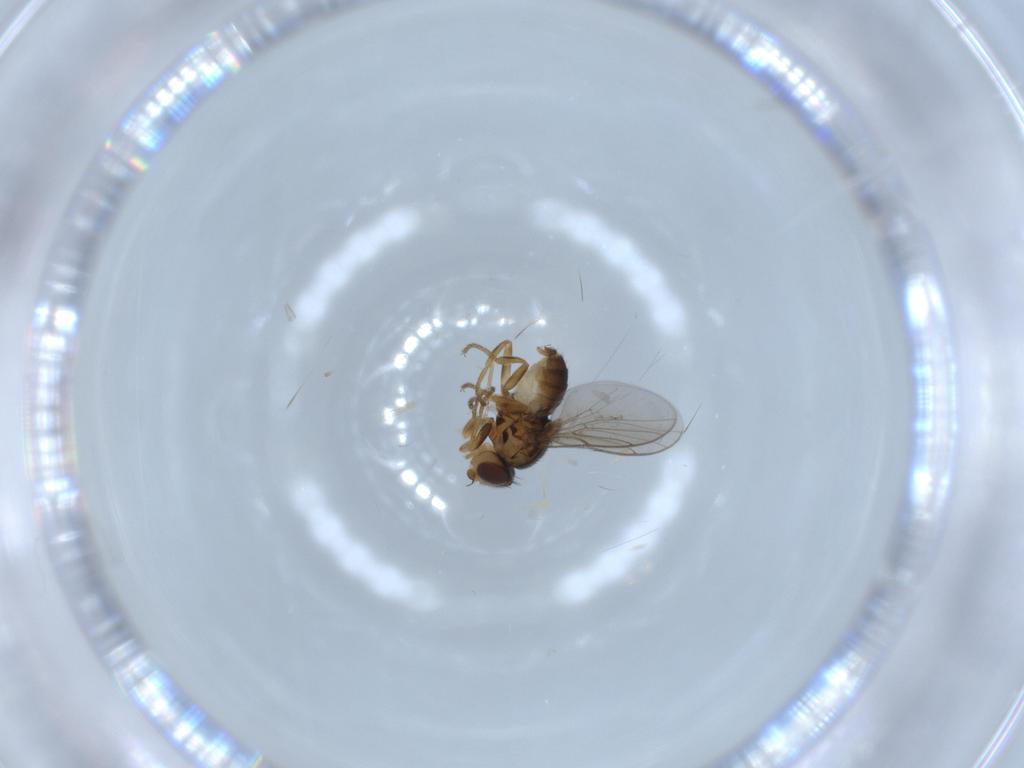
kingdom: Animalia
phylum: Arthropoda
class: Insecta
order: Diptera
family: Chloropidae
